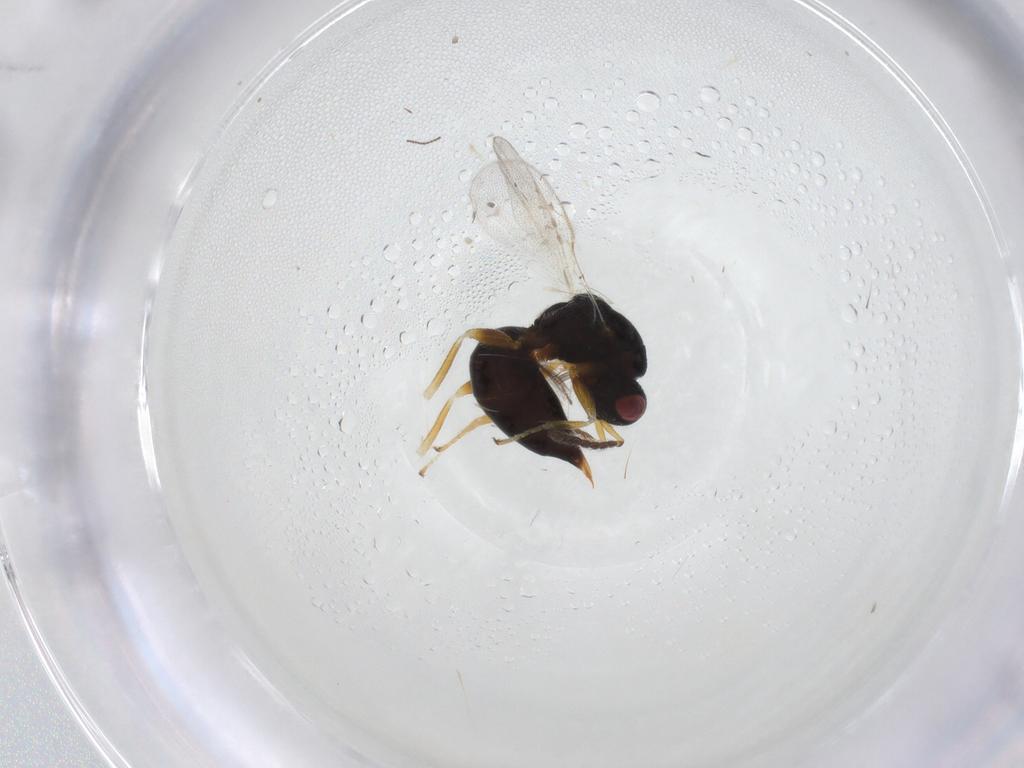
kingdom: Animalia
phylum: Arthropoda
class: Insecta
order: Hymenoptera
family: Eurytomidae
